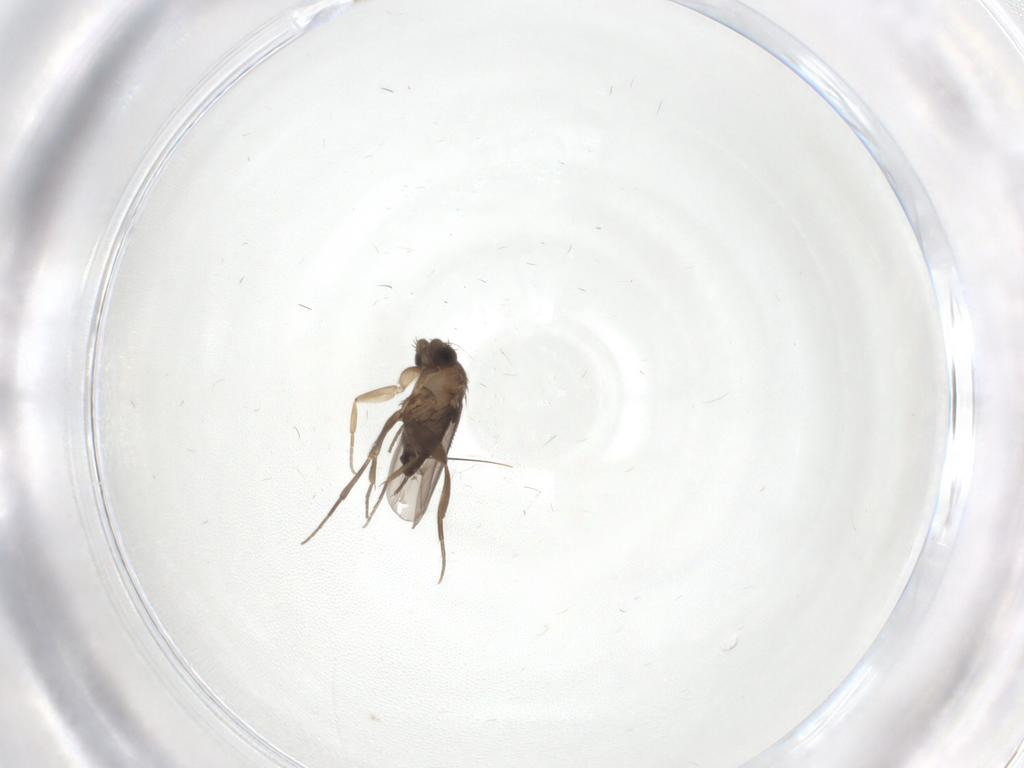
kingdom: Animalia
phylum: Arthropoda
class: Insecta
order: Diptera
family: Phoridae
